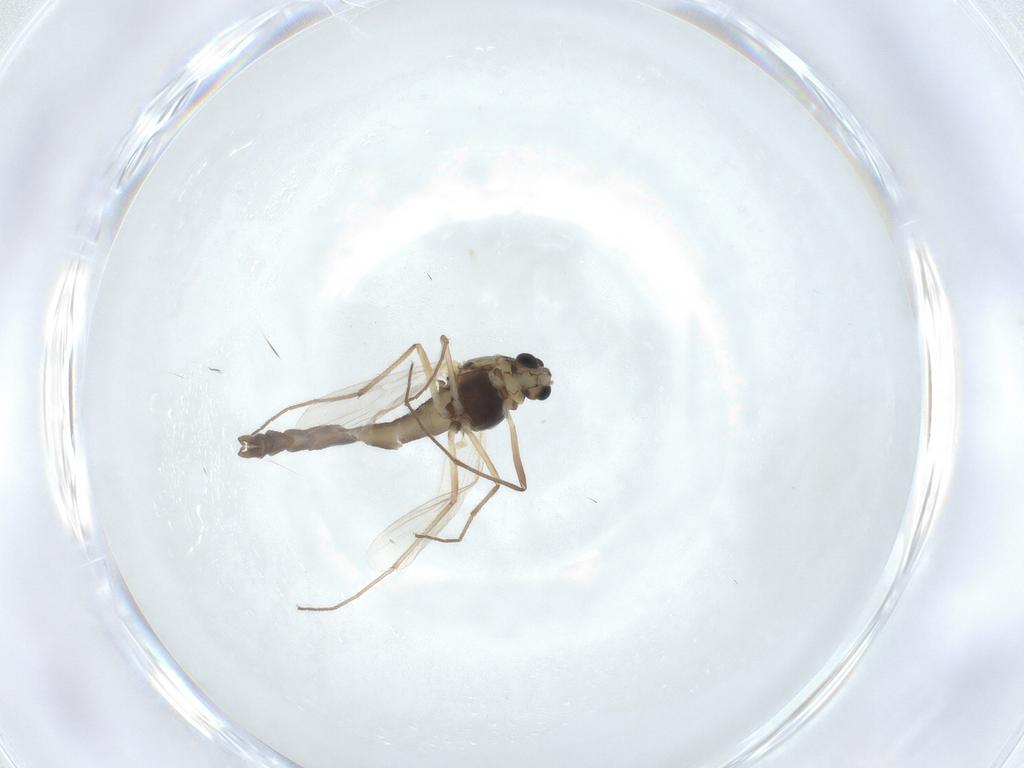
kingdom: Animalia
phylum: Arthropoda
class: Insecta
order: Diptera
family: Chironomidae
